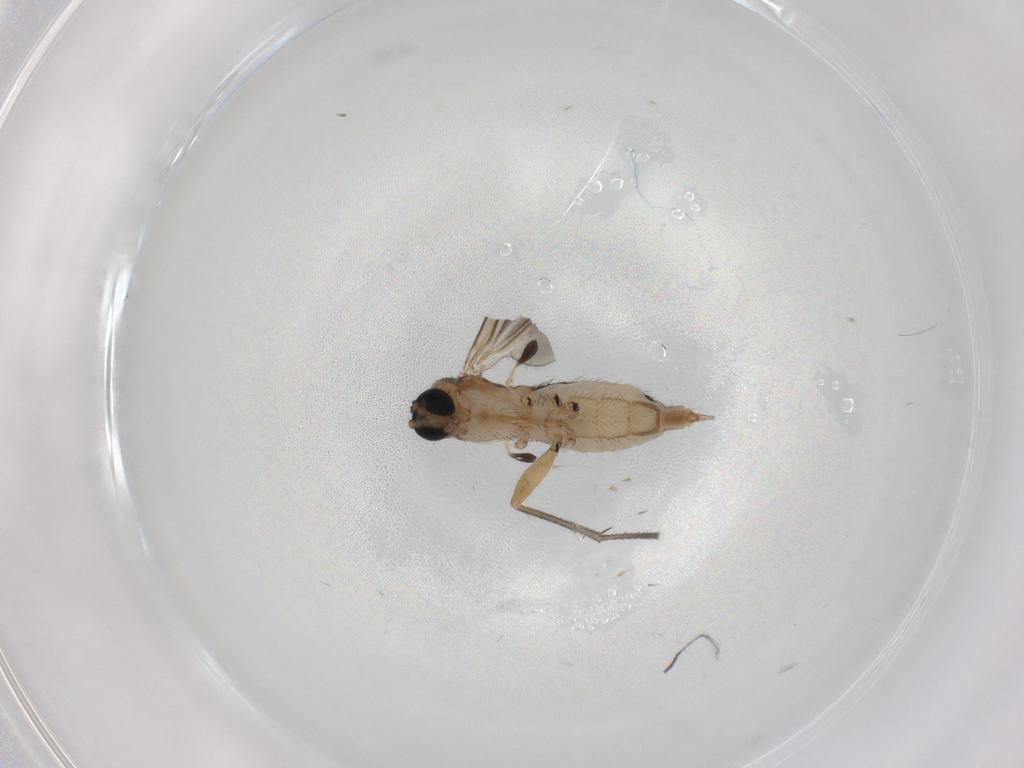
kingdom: Animalia
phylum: Arthropoda
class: Insecta
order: Diptera
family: Sciaridae
